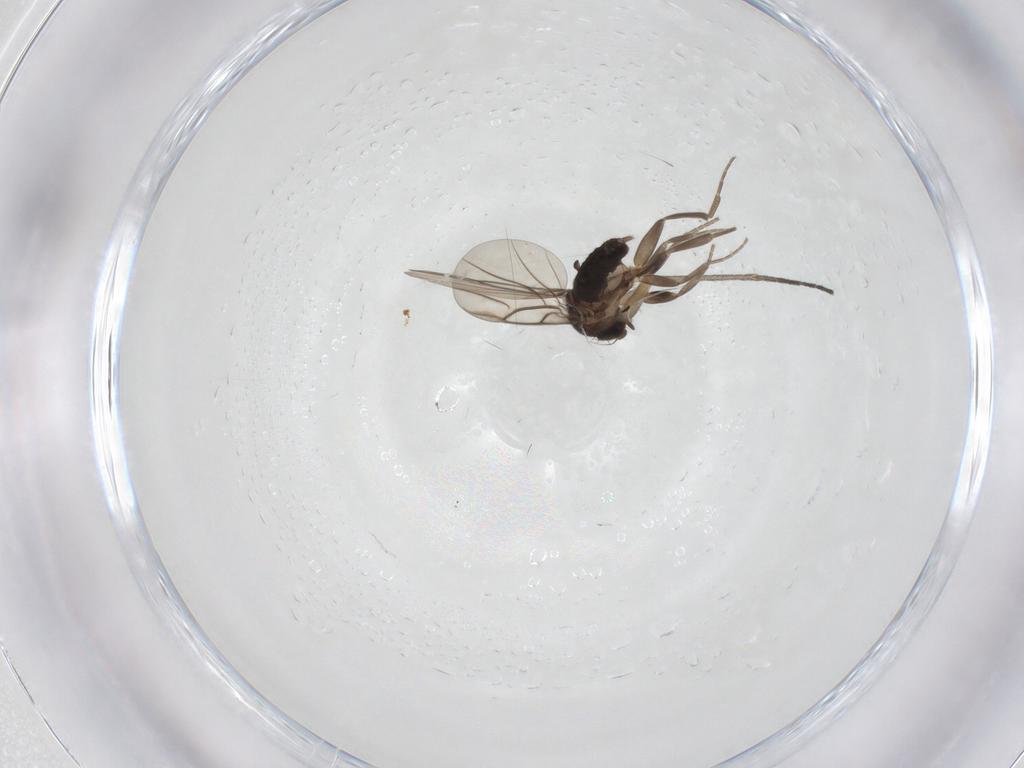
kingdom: Animalia
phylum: Arthropoda
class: Insecta
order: Diptera
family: Phoridae
